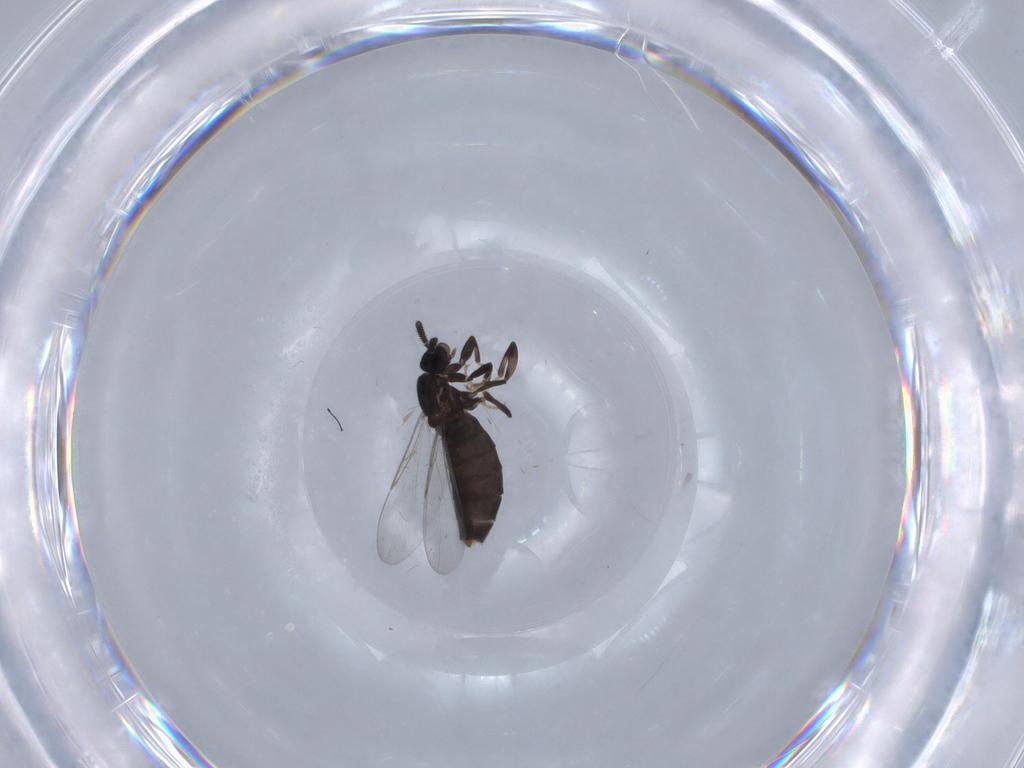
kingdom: Animalia
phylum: Arthropoda
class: Insecta
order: Diptera
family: Scatopsidae
